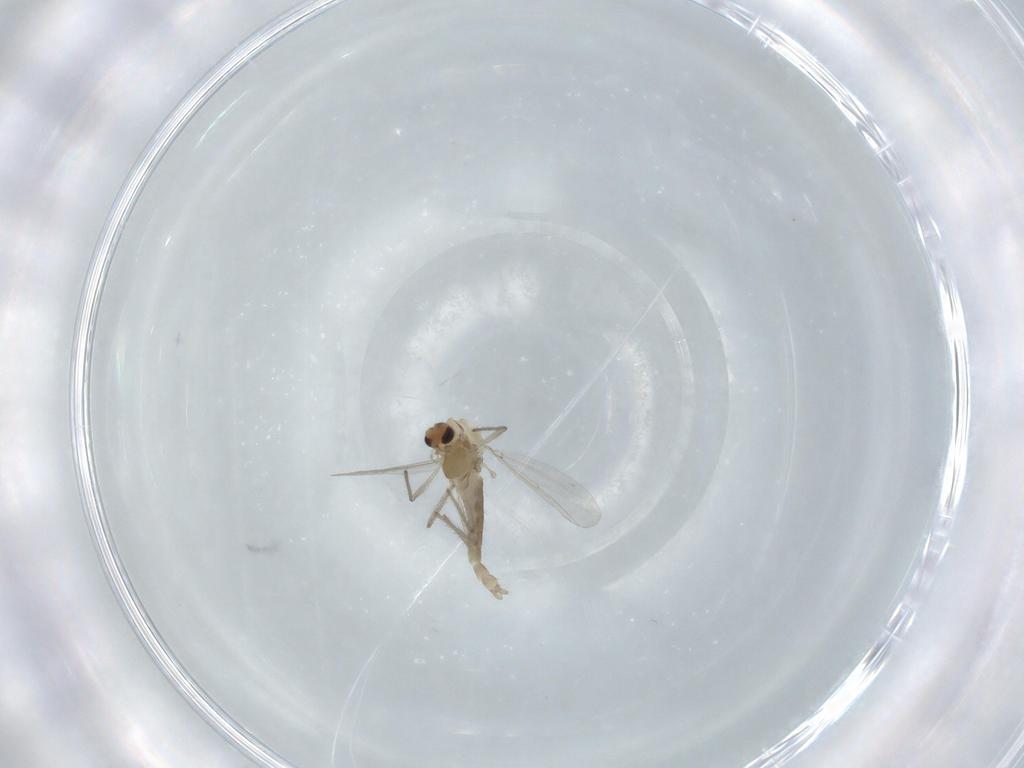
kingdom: Animalia
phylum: Arthropoda
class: Insecta
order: Diptera
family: Chironomidae
